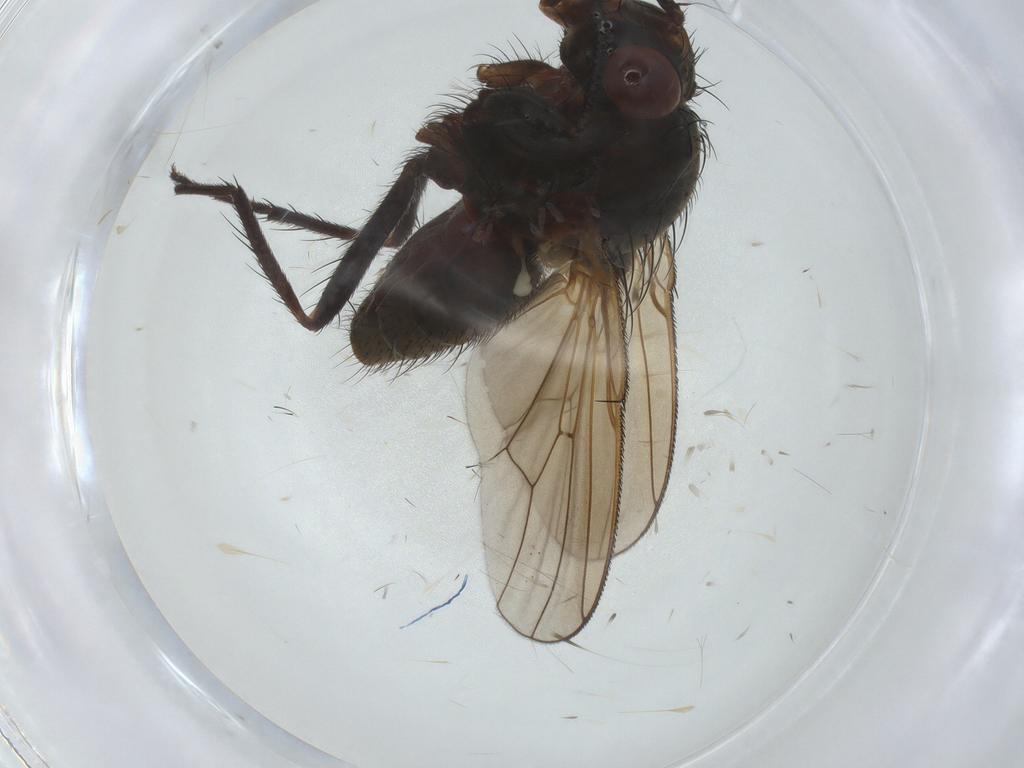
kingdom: Animalia
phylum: Arthropoda
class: Insecta
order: Diptera
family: Anthomyiidae
